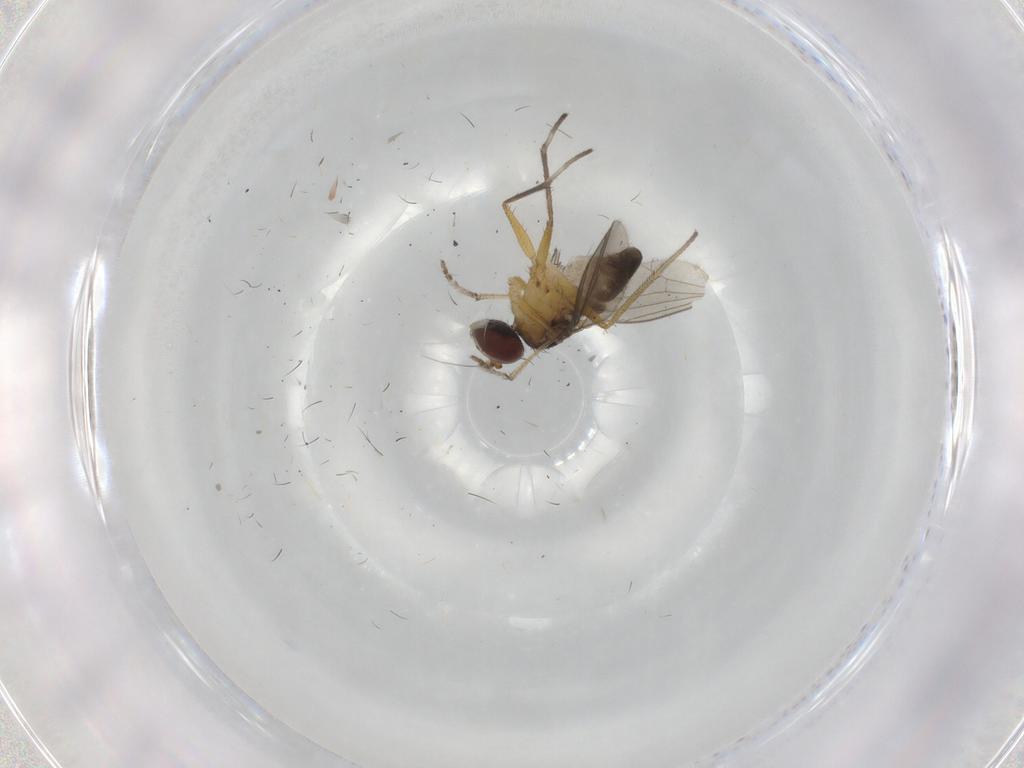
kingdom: Animalia
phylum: Arthropoda
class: Insecta
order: Diptera
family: Dolichopodidae
